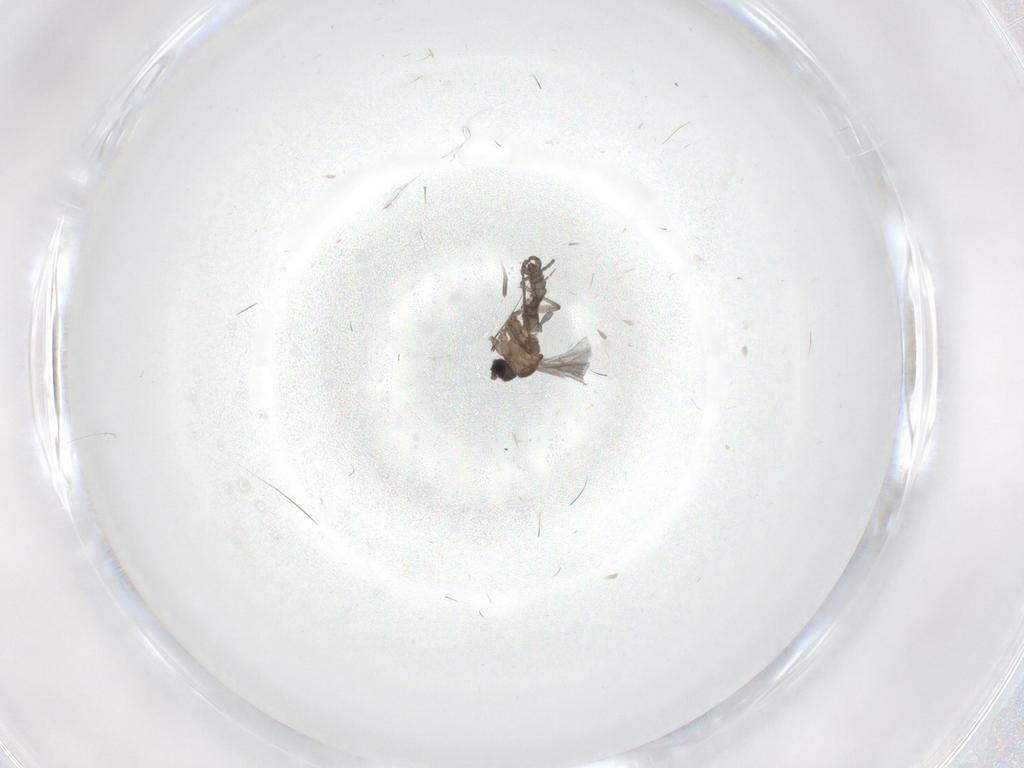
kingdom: Animalia
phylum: Arthropoda
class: Insecta
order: Diptera
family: Sciaridae
